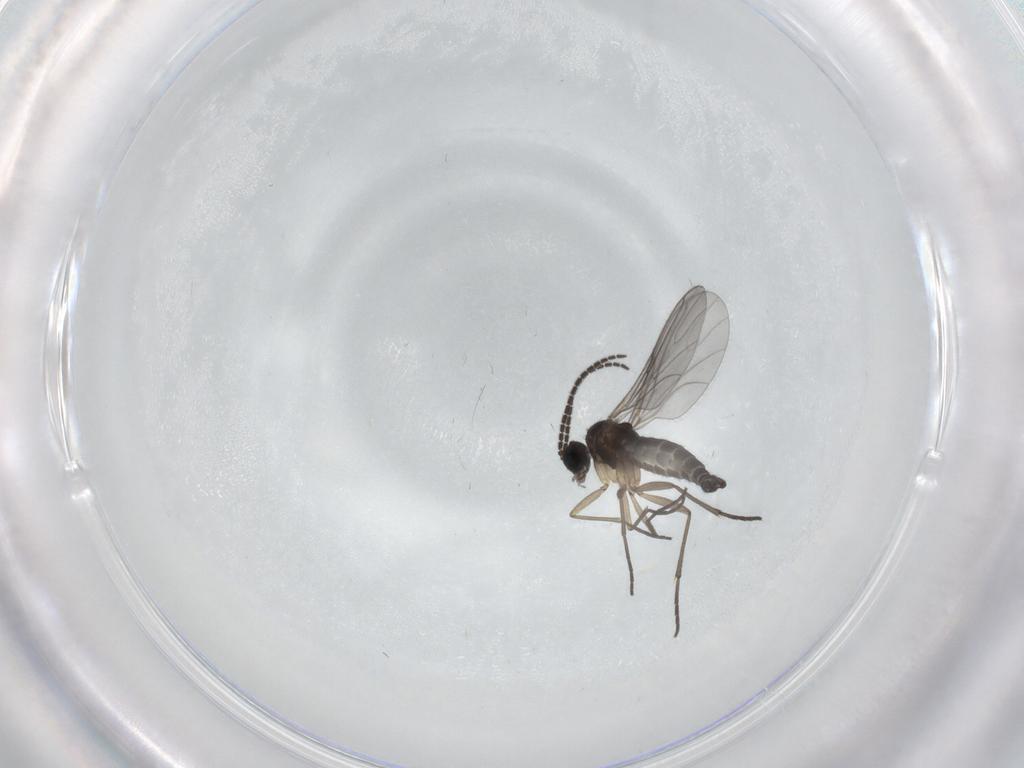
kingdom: Animalia
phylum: Arthropoda
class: Insecta
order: Diptera
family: Sciaridae
